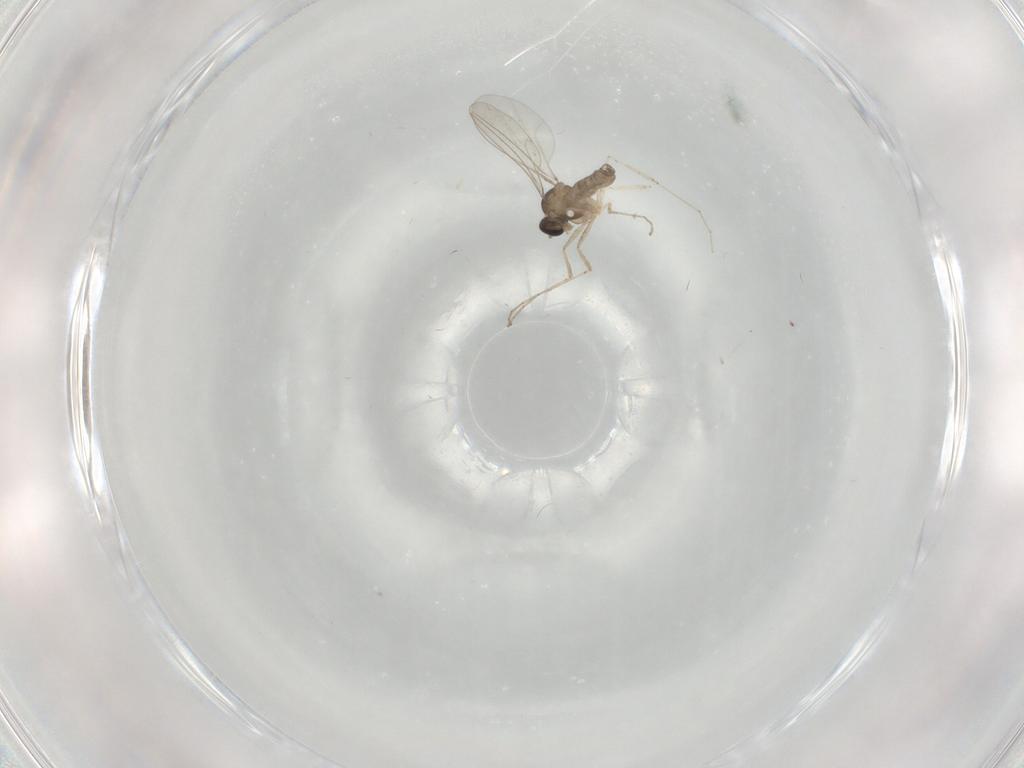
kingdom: Animalia
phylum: Arthropoda
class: Insecta
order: Diptera
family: Sphaeroceridae
